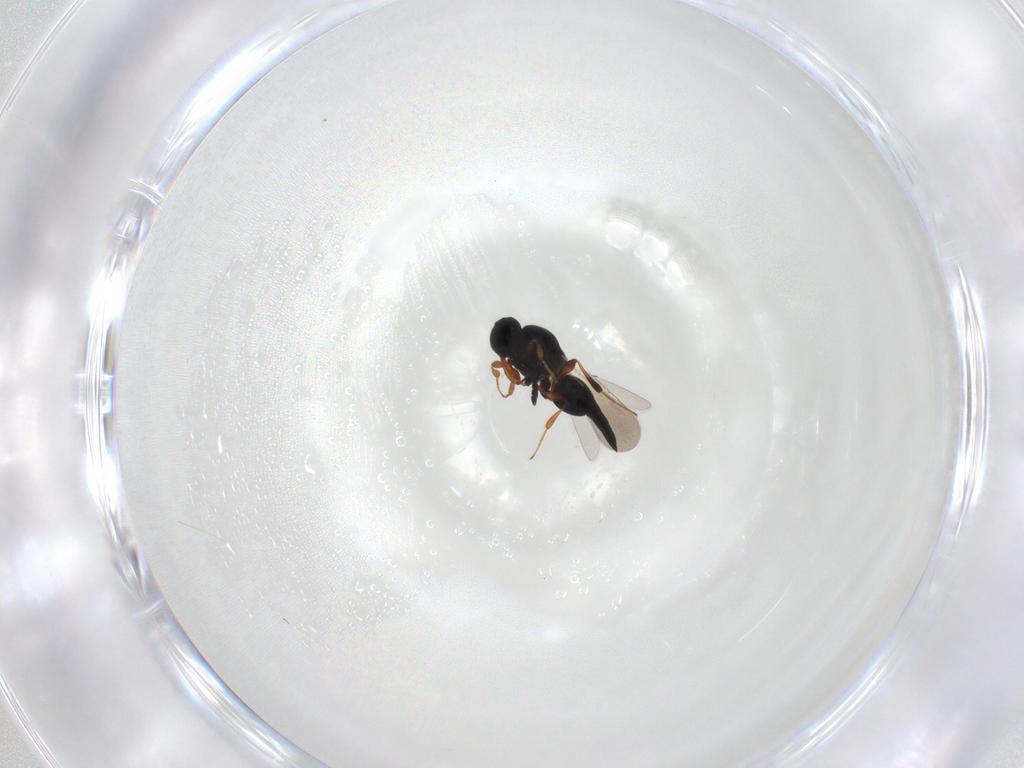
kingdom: Animalia
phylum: Arthropoda
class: Insecta
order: Hymenoptera
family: Platygastridae
